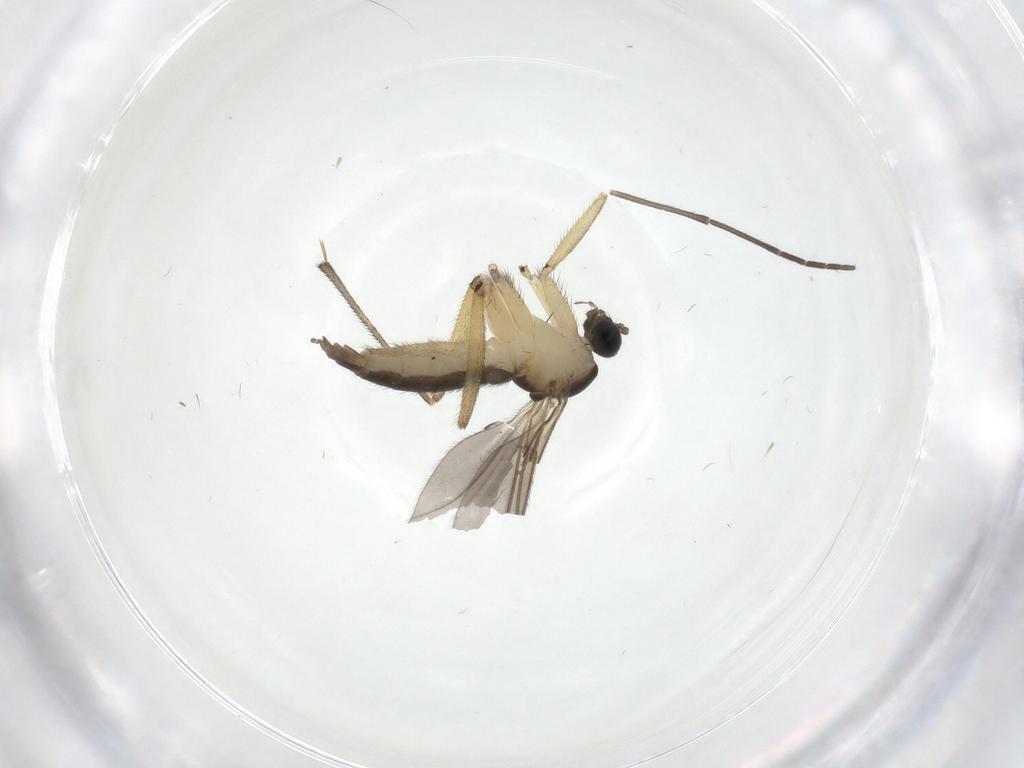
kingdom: Animalia
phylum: Arthropoda
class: Insecta
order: Diptera
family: Sciaridae
